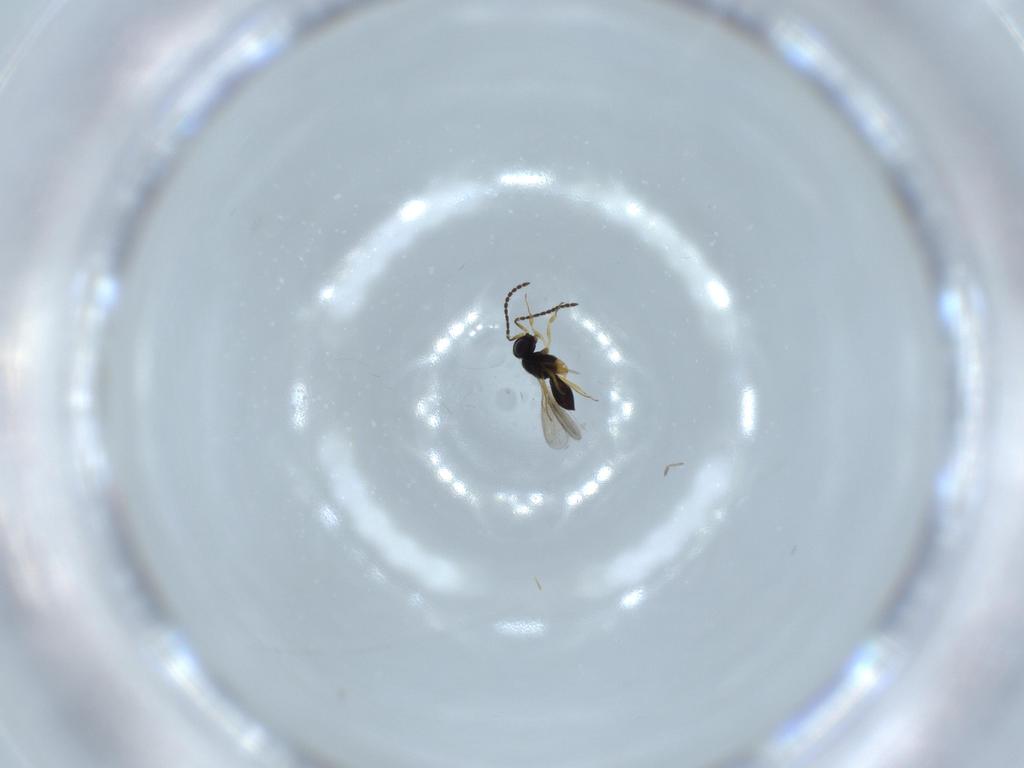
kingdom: Animalia
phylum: Arthropoda
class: Insecta
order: Hymenoptera
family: Scelionidae
